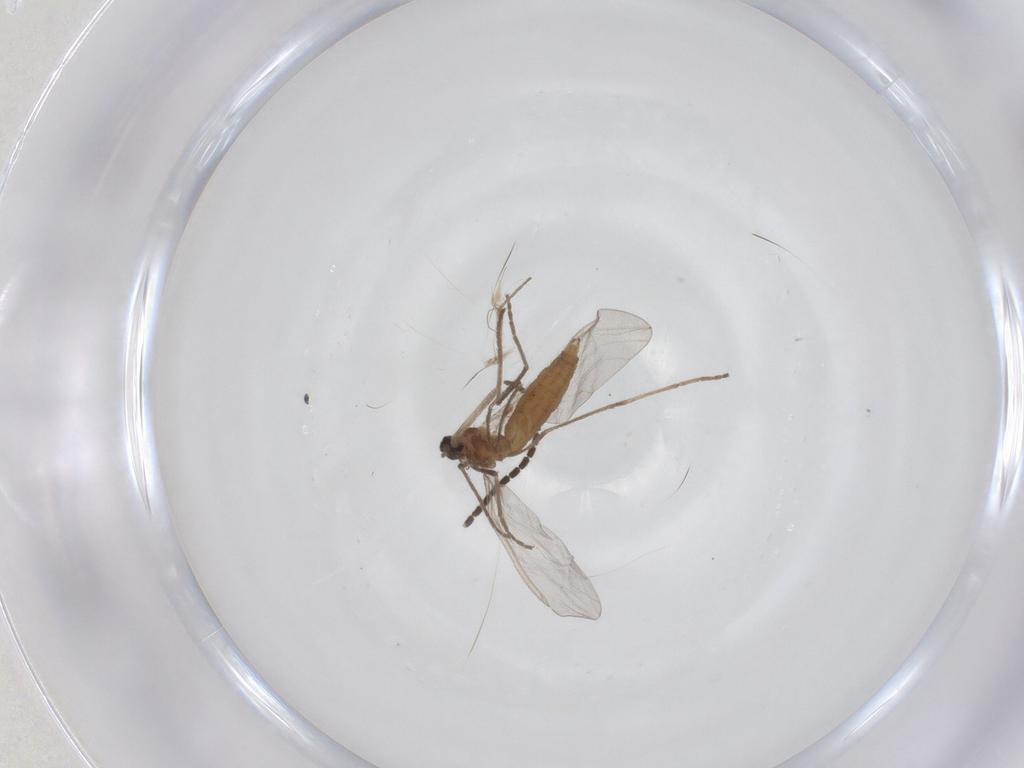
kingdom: Animalia
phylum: Arthropoda
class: Insecta
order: Diptera
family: Cecidomyiidae
